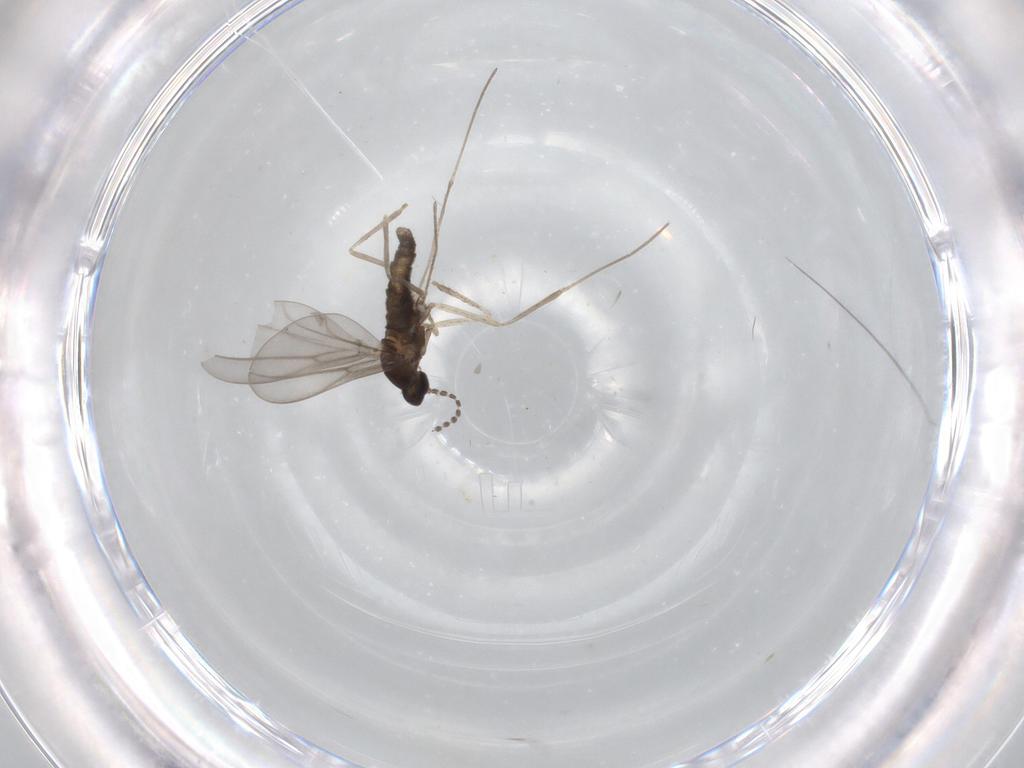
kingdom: Animalia
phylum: Arthropoda
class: Insecta
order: Diptera
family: Cecidomyiidae
